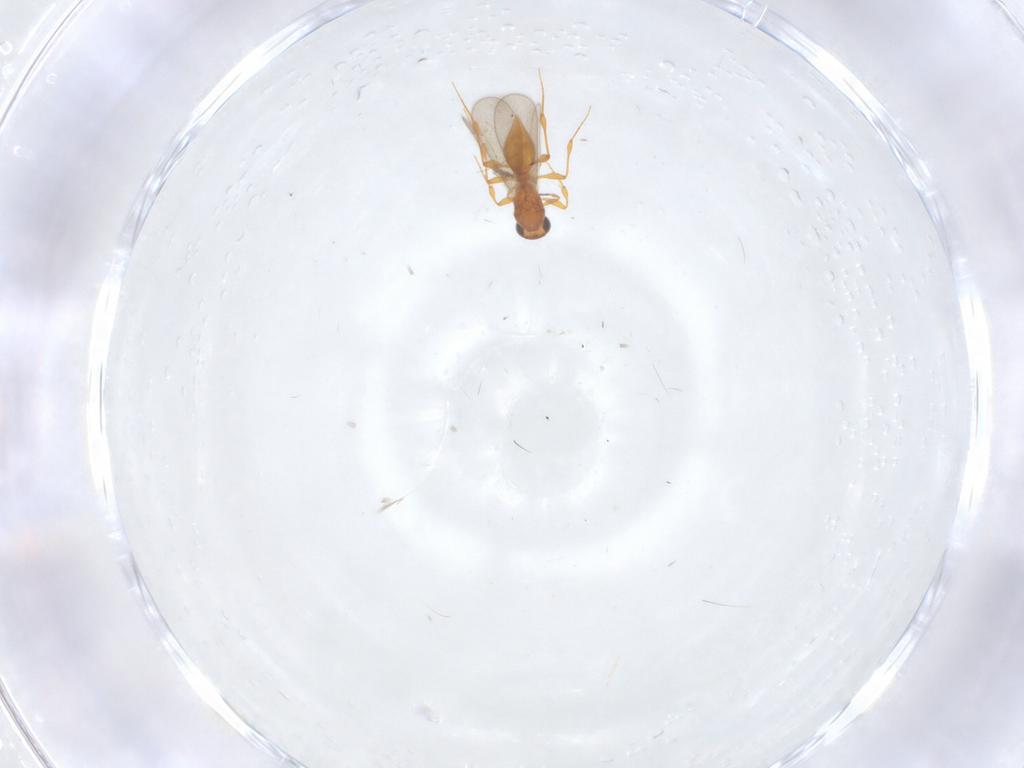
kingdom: Animalia
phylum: Arthropoda
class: Insecta
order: Hymenoptera
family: Platygastridae
